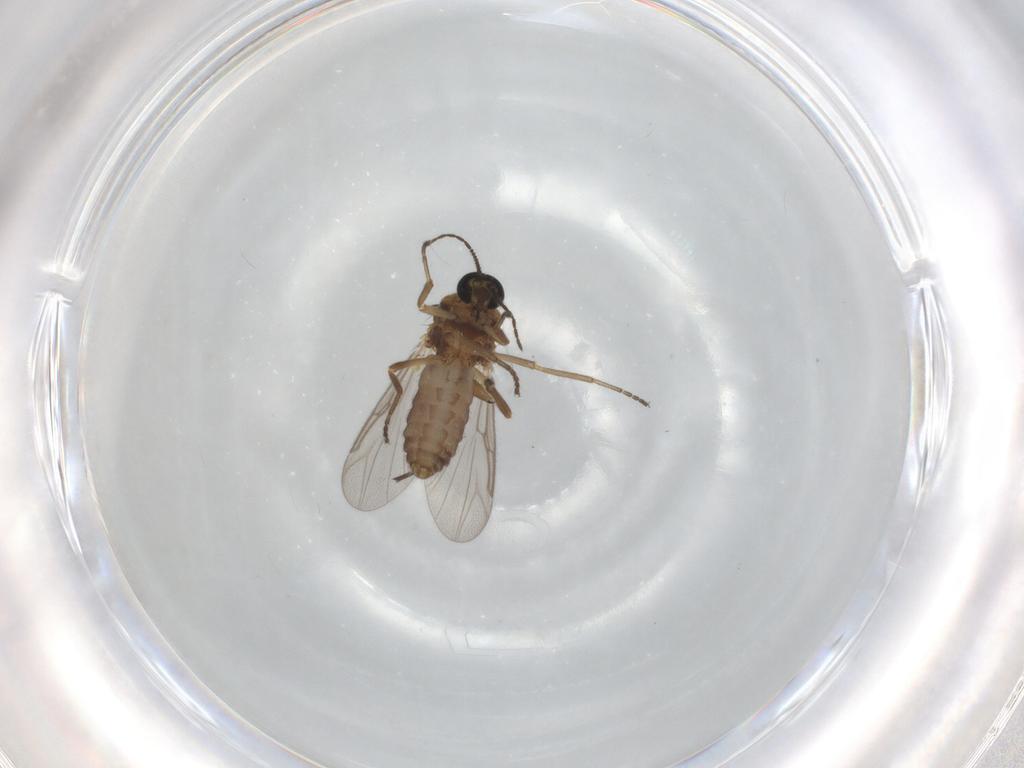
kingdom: Animalia
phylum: Arthropoda
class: Insecta
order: Diptera
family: Ceratopogonidae
